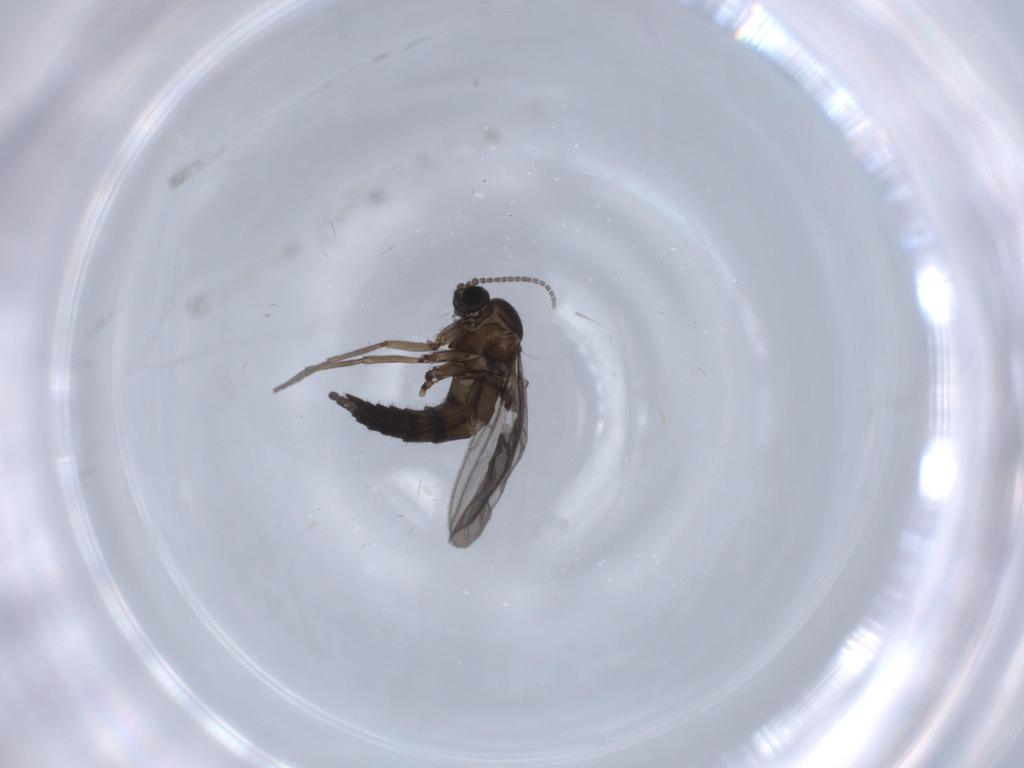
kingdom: Animalia
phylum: Arthropoda
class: Insecta
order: Diptera
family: Sciaridae
